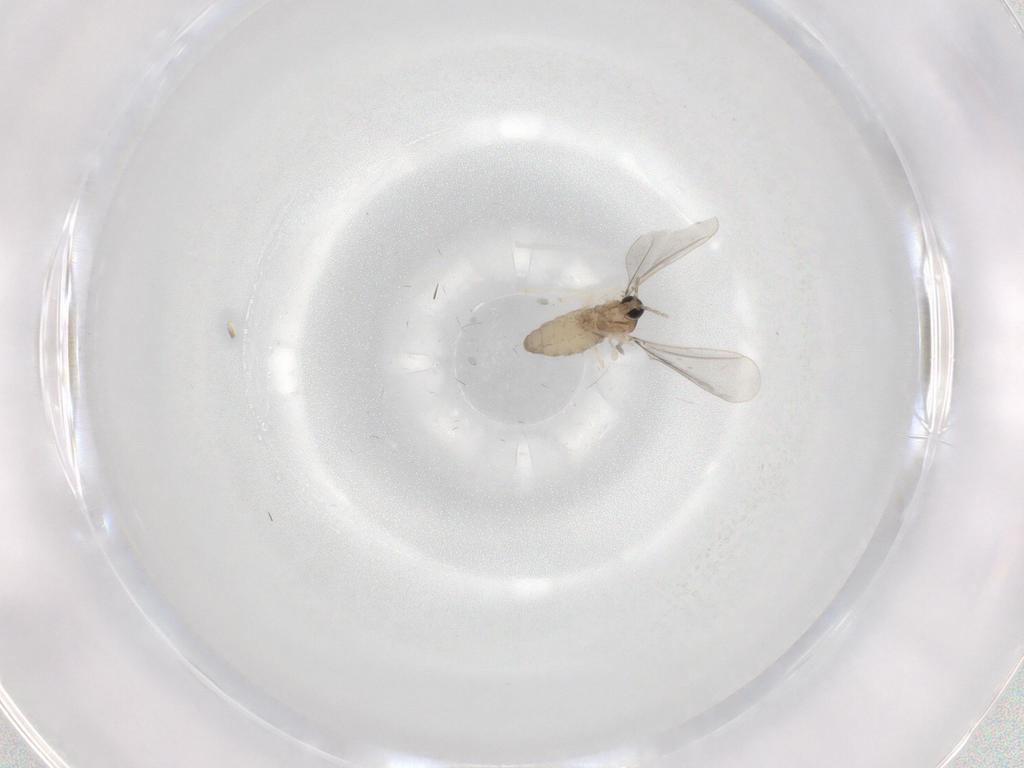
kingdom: Animalia
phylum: Arthropoda
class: Insecta
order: Diptera
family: Cecidomyiidae
